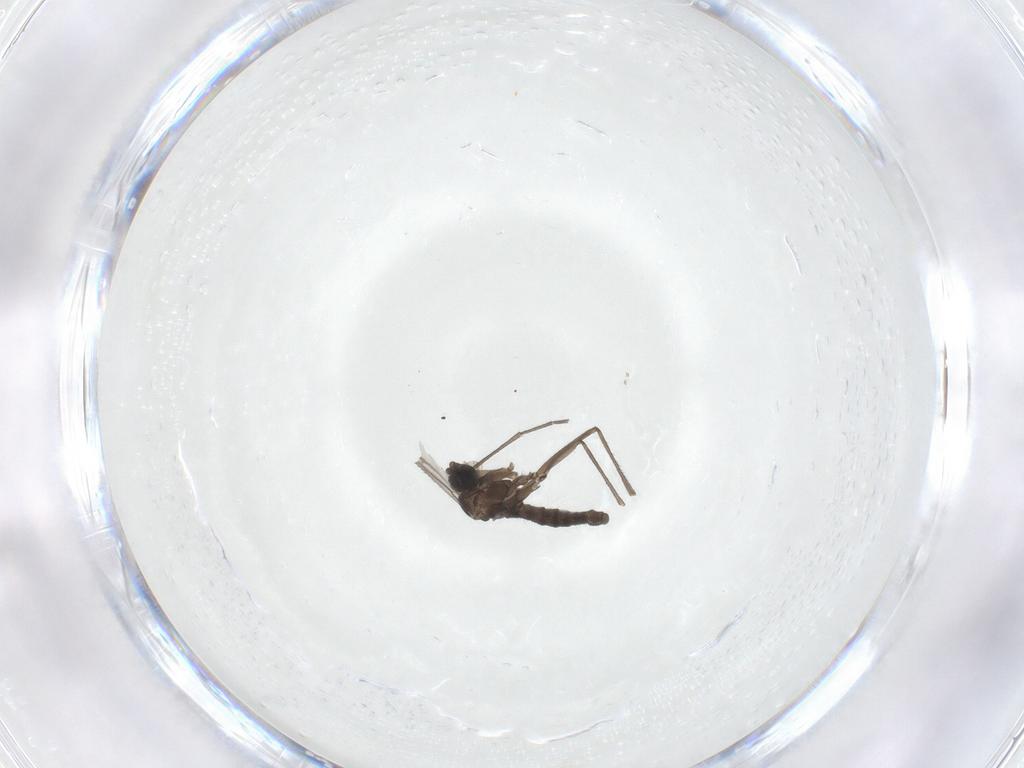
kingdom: Animalia
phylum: Arthropoda
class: Insecta
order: Diptera
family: Sciaridae
